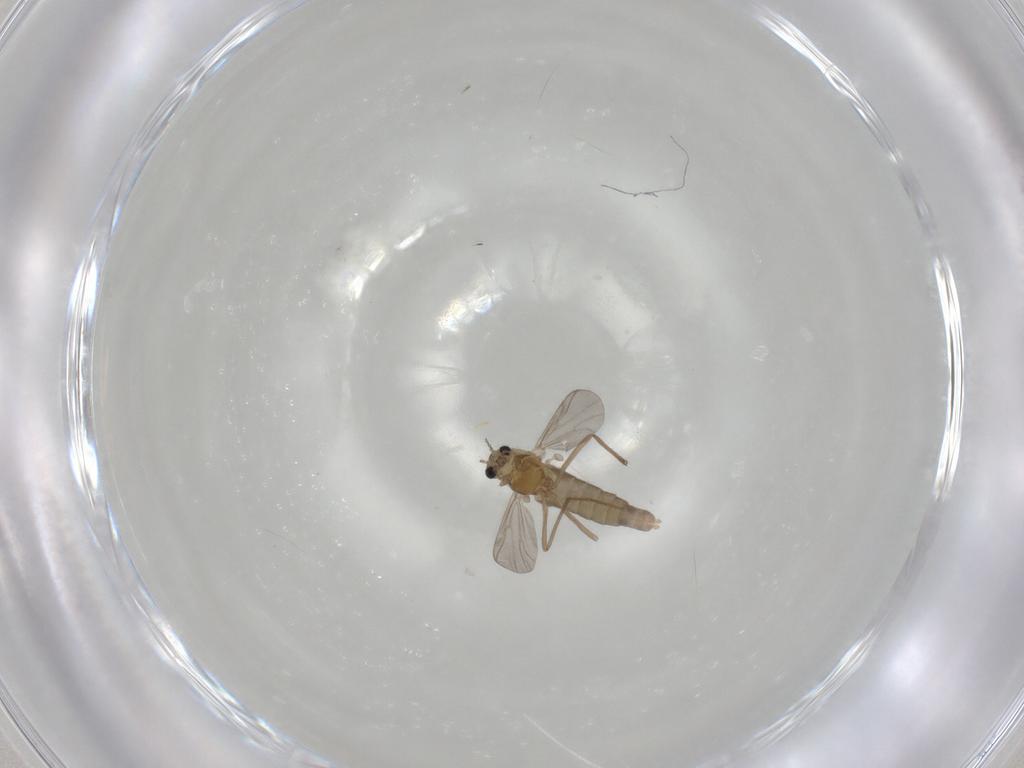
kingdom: Animalia
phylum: Arthropoda
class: Insecta
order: Diptera
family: Chironomidae
